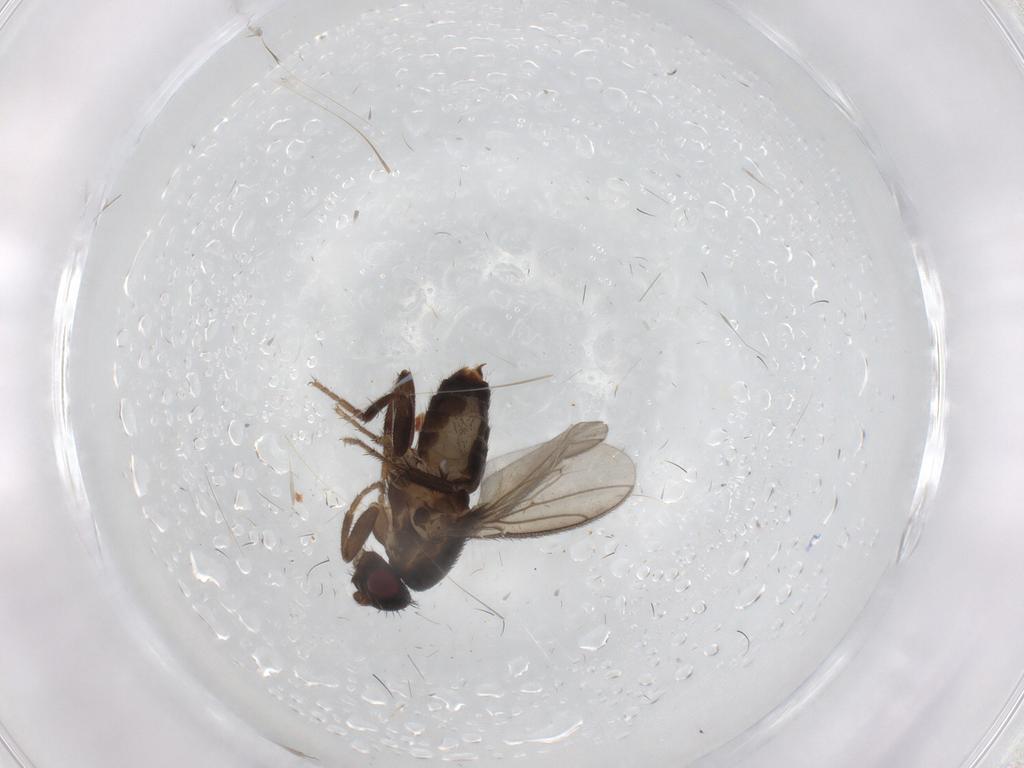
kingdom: Animalia
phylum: Arthropoda
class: Insecta
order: Diptera
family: Sphaeroceridae
